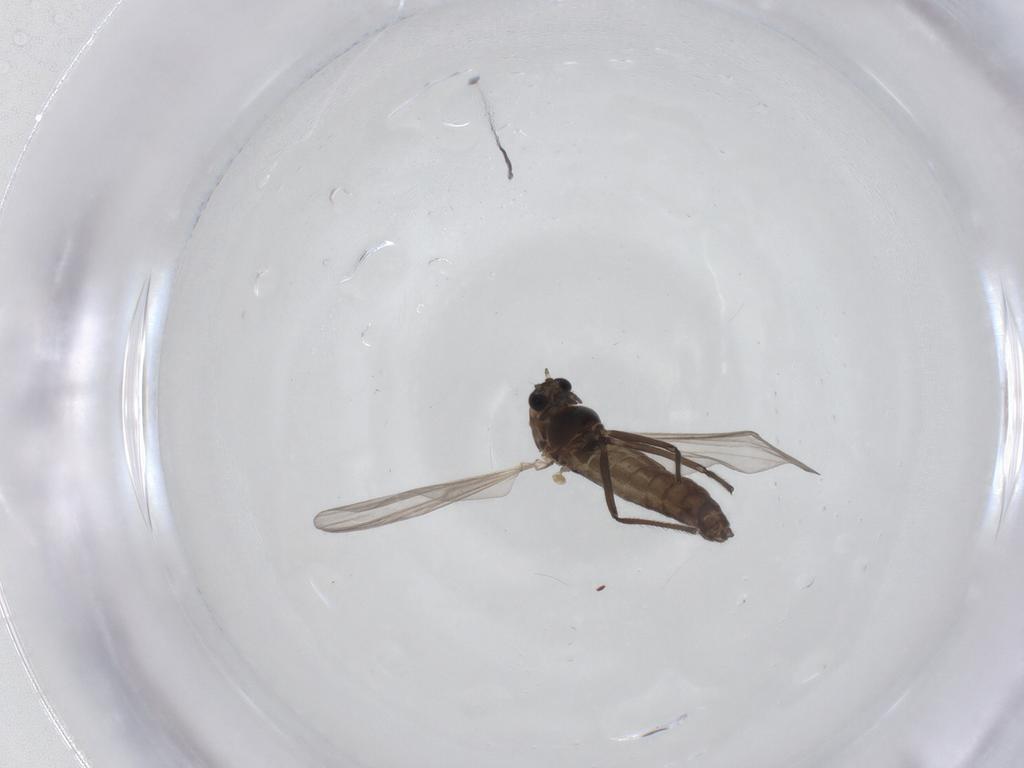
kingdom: Animalia
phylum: Arthropoda
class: Insecta
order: Diptera
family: Chironomidae
